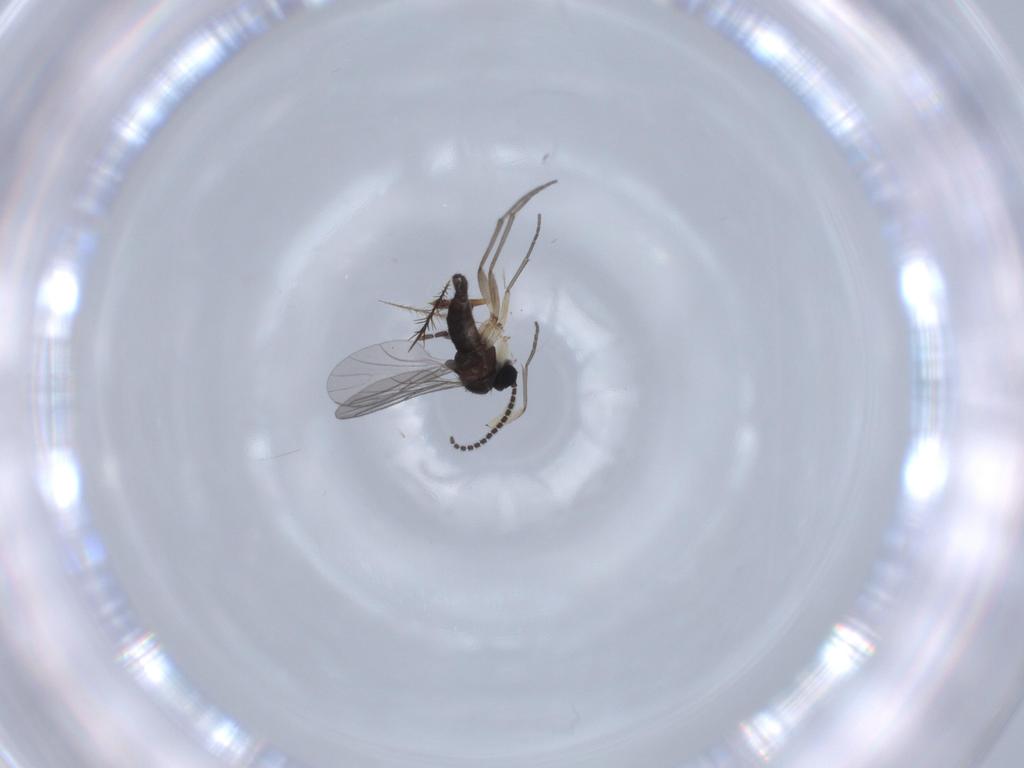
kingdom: Animalia
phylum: Arthropoda
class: Insecta
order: Diptera
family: Sciaridae
